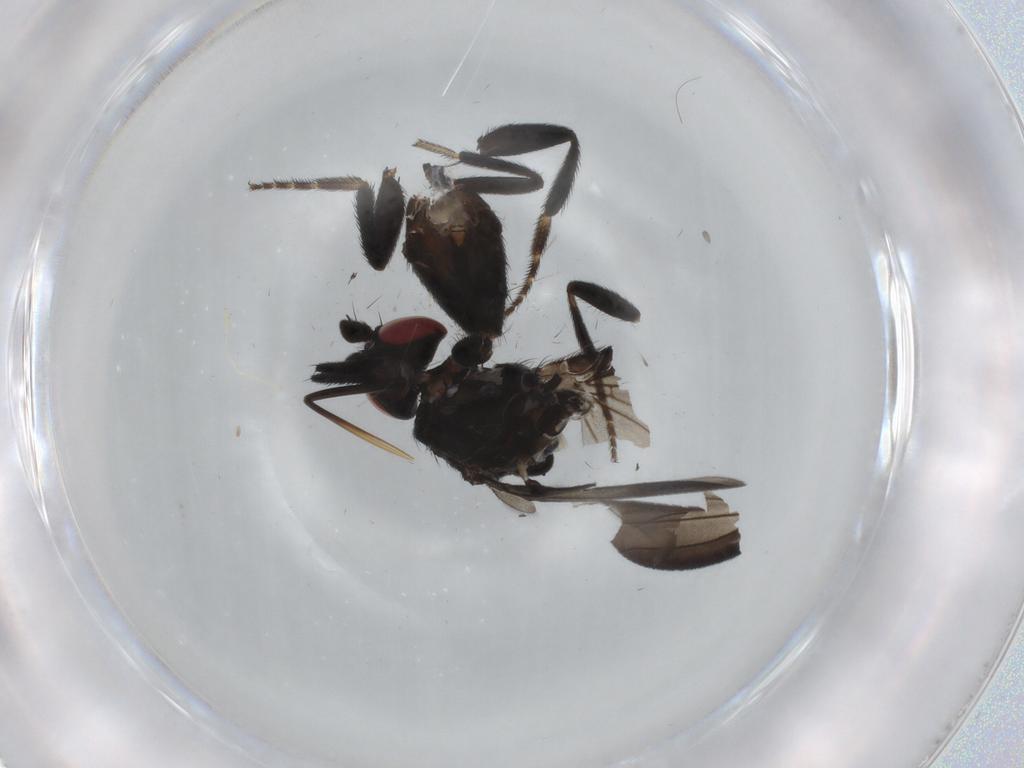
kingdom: Animalia
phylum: Arthropoda
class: Insecta
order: Diptera
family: Milichiidae
